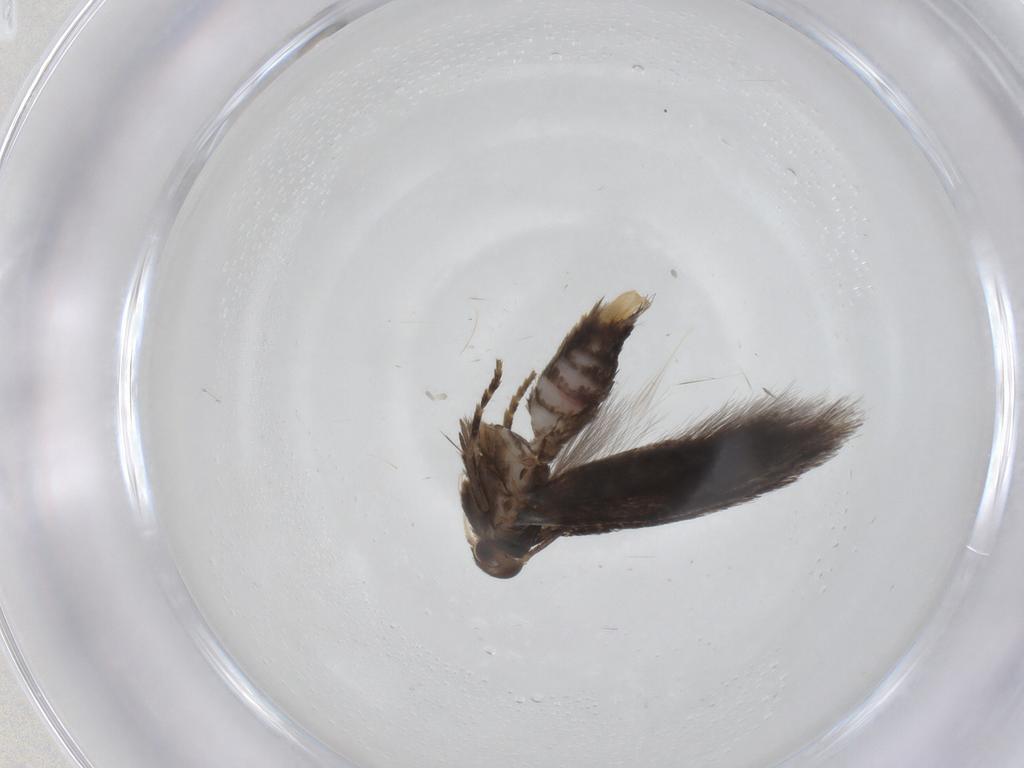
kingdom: Animalia
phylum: Arthropoda
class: Insecta
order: Lepidoptera
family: Elachistidae
